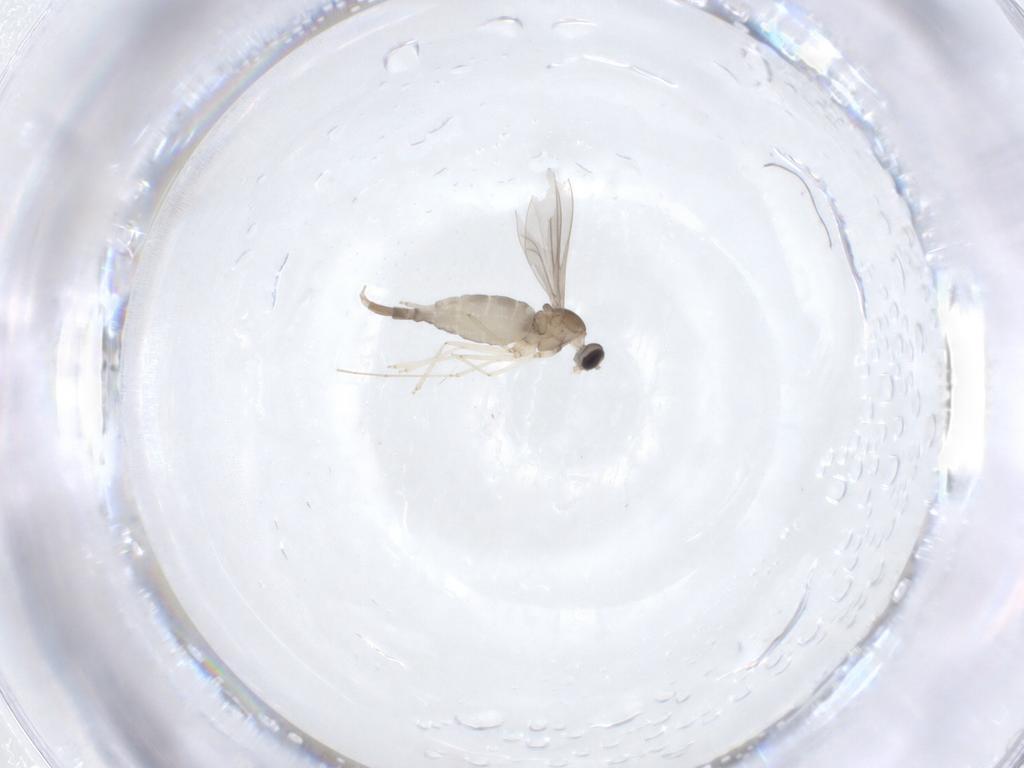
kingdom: Animalia
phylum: Arthropoda
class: Insecta
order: Diptera
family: Cecidomyiidae
